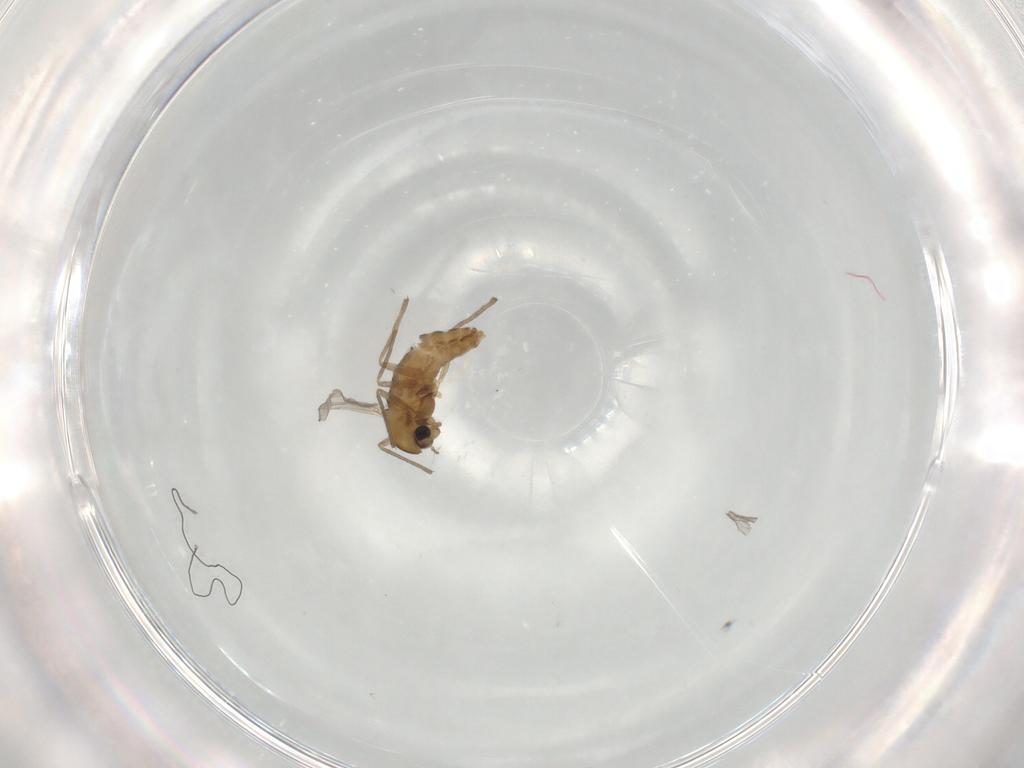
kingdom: Animalia
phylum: Arthropoda
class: Insecta
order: Diptera
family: Chironomidae
